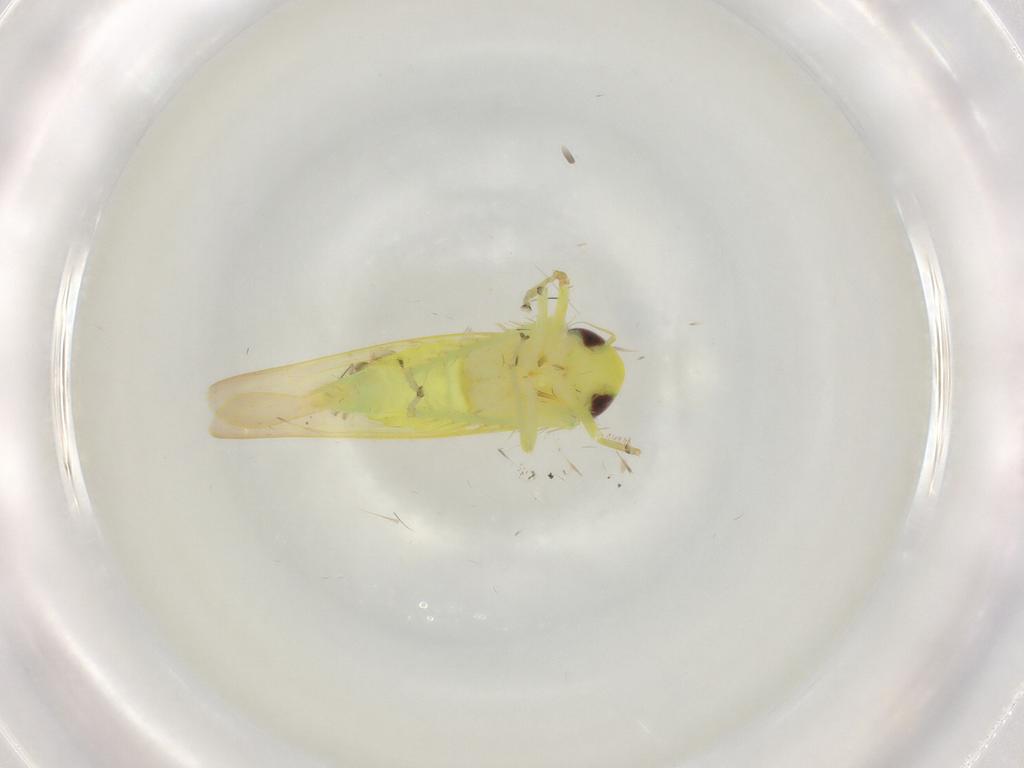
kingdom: Animalia
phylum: Arthropoda
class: Insecta
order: Hemiptera
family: Cicadellidae
